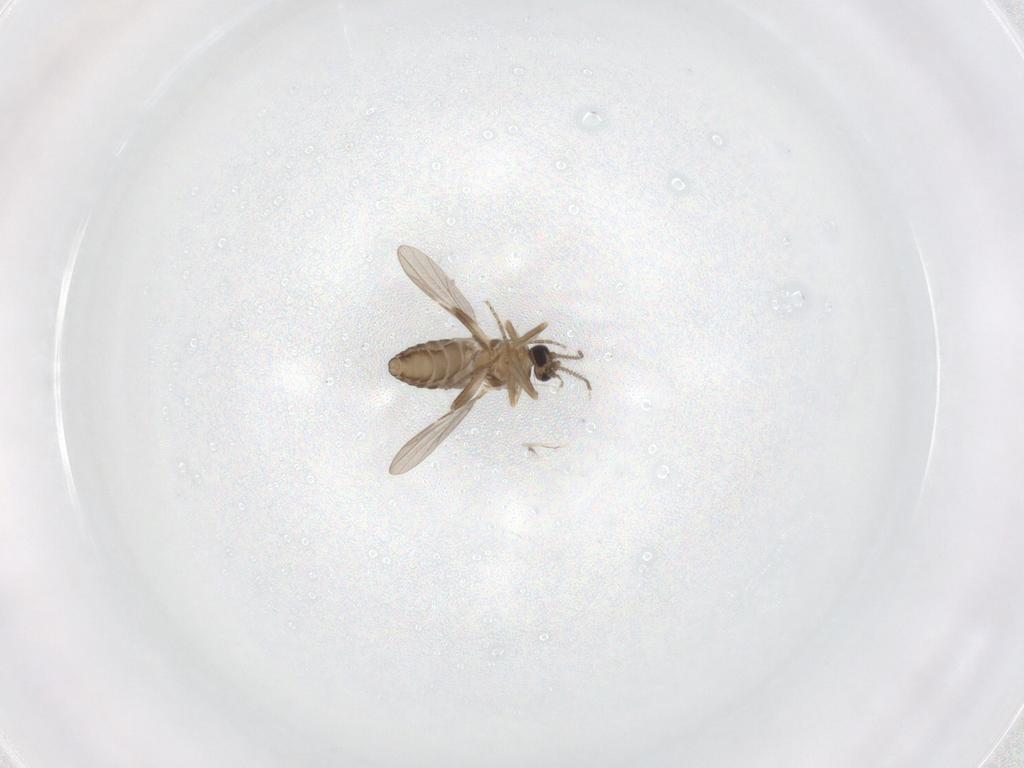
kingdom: Animalia
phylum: Arthropoda
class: Insecta
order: Diptera
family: Ceratopogonidae
